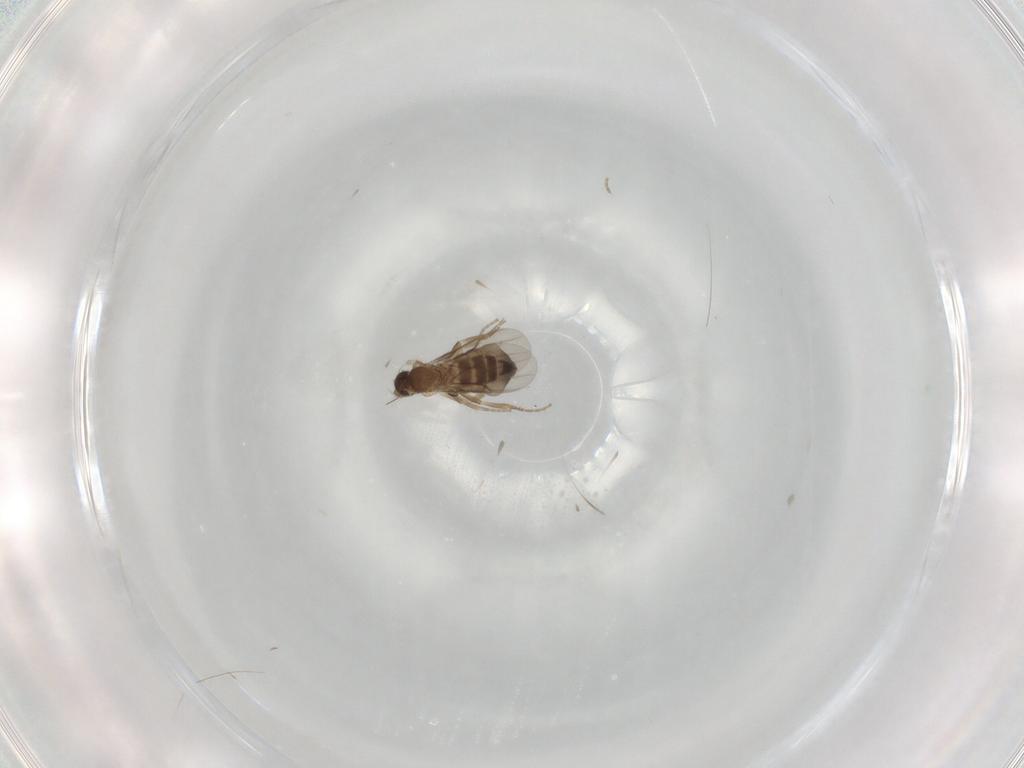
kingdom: Animalia
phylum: Arthropoda
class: Insecta
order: Diptera
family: Phoridae
